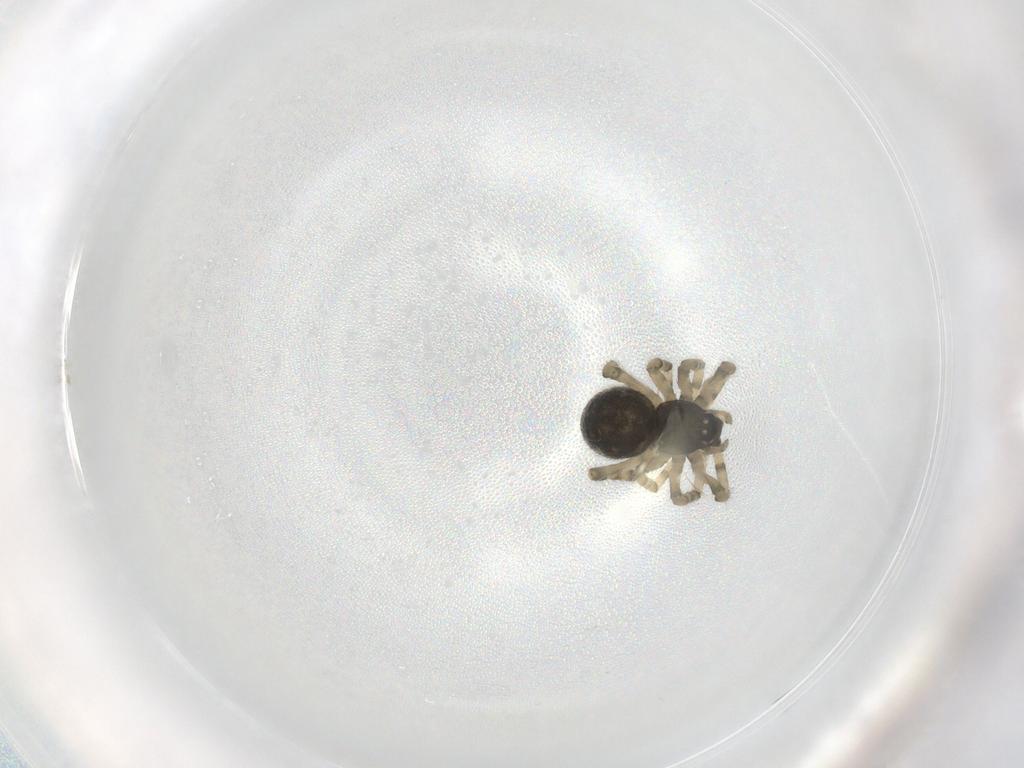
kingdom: Animalia
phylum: Arthropoda
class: Arachnida
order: Araneae
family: Theridiidae
